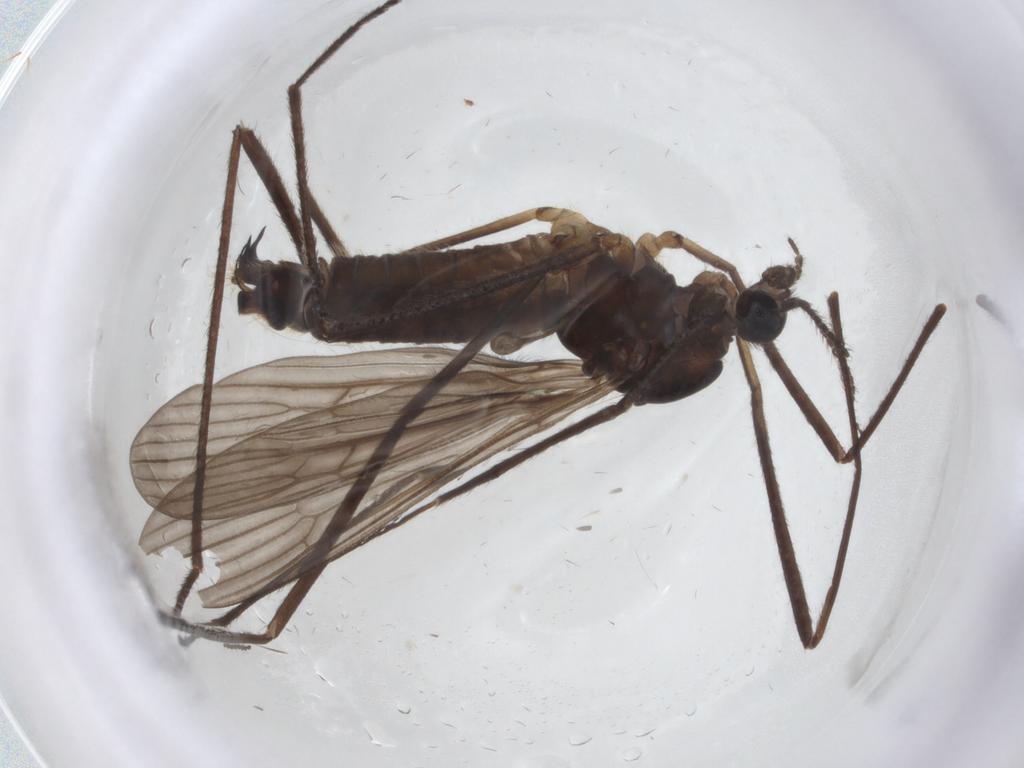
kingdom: Animalia
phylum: Arthropoda
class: Insecta
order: Diptera
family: Limoniidae
